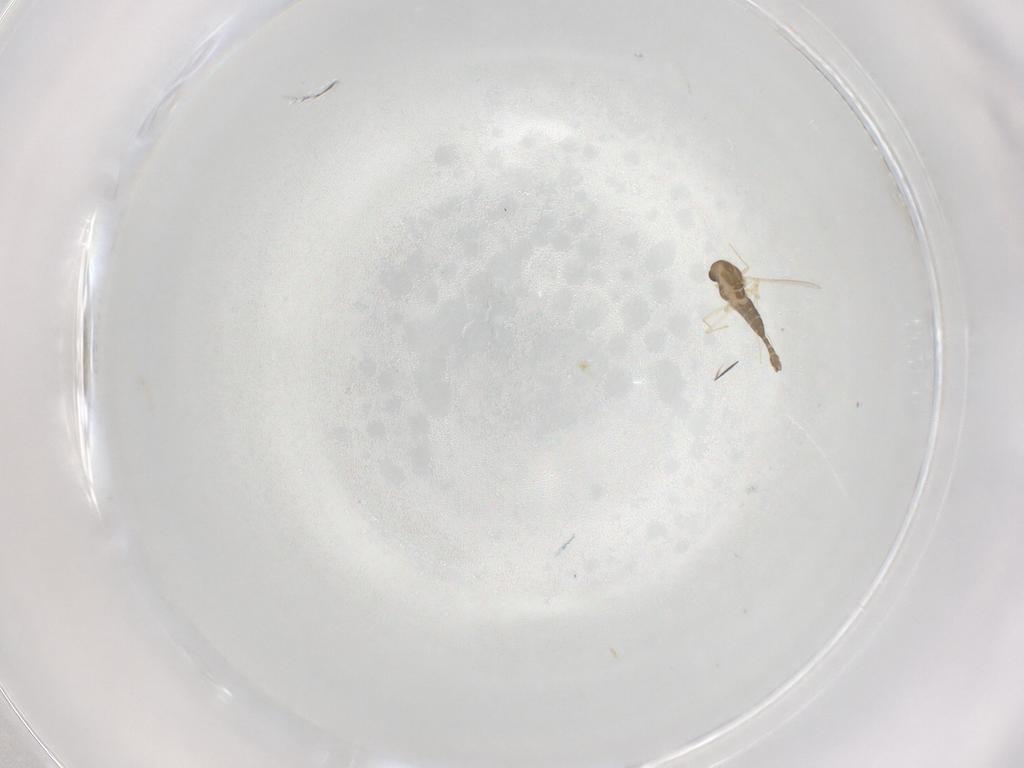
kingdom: Animalia
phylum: Arthropoda
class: Insecta
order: Diptera
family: Chironomidae
